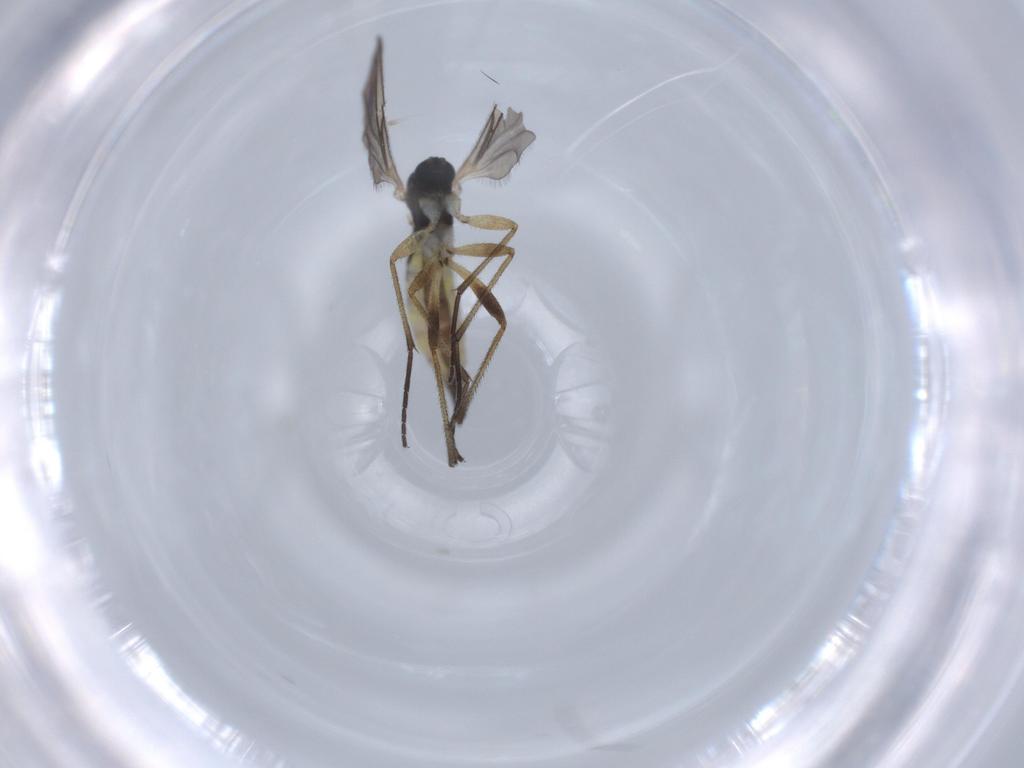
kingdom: Animalia
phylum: Arthropoda
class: Insecta
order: Diptera
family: Sciaridae
